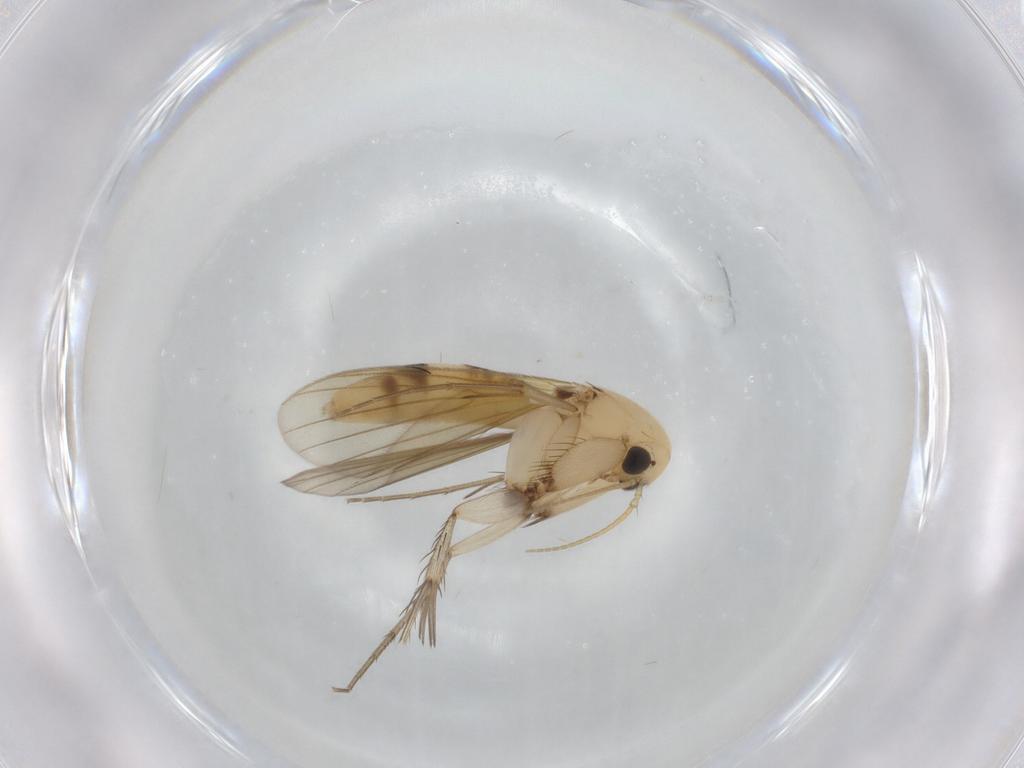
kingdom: Animalia
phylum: Arthropoda
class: Insecta
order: Diptera
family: Mycetophilidae
